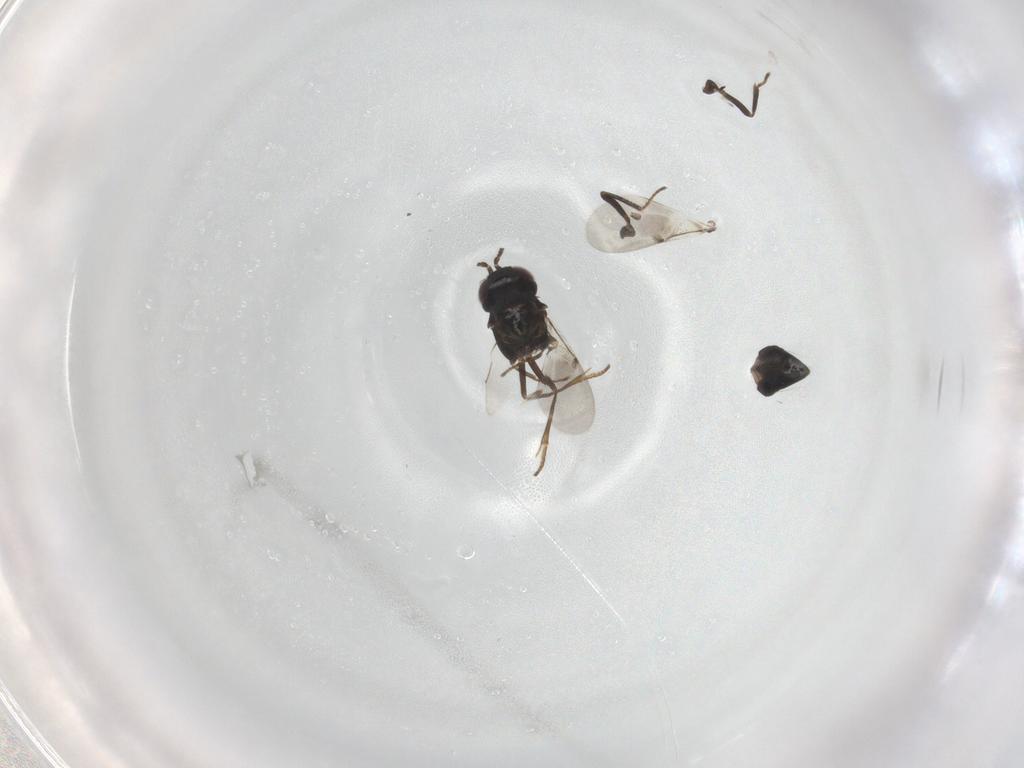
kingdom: Animalia
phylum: Arthropoda
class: Insecta
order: Hymenoptera
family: Encyrtidae
